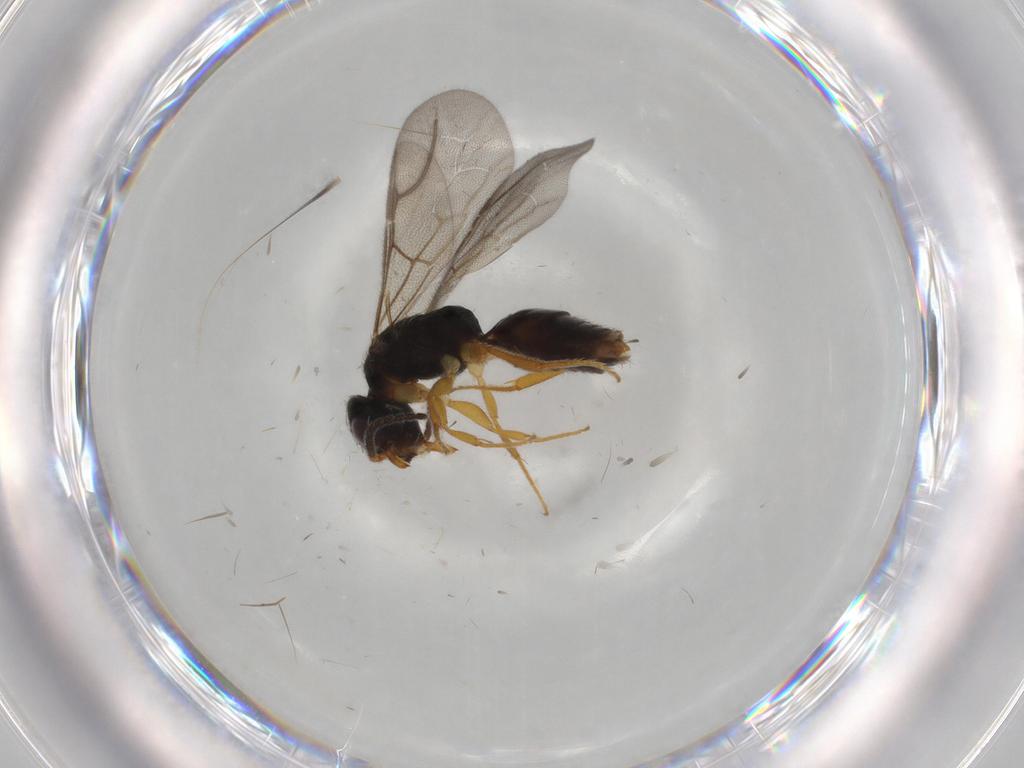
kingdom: Animalia
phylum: Arthropoda
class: Insecta
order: Hymenoptera
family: Bethylidae
